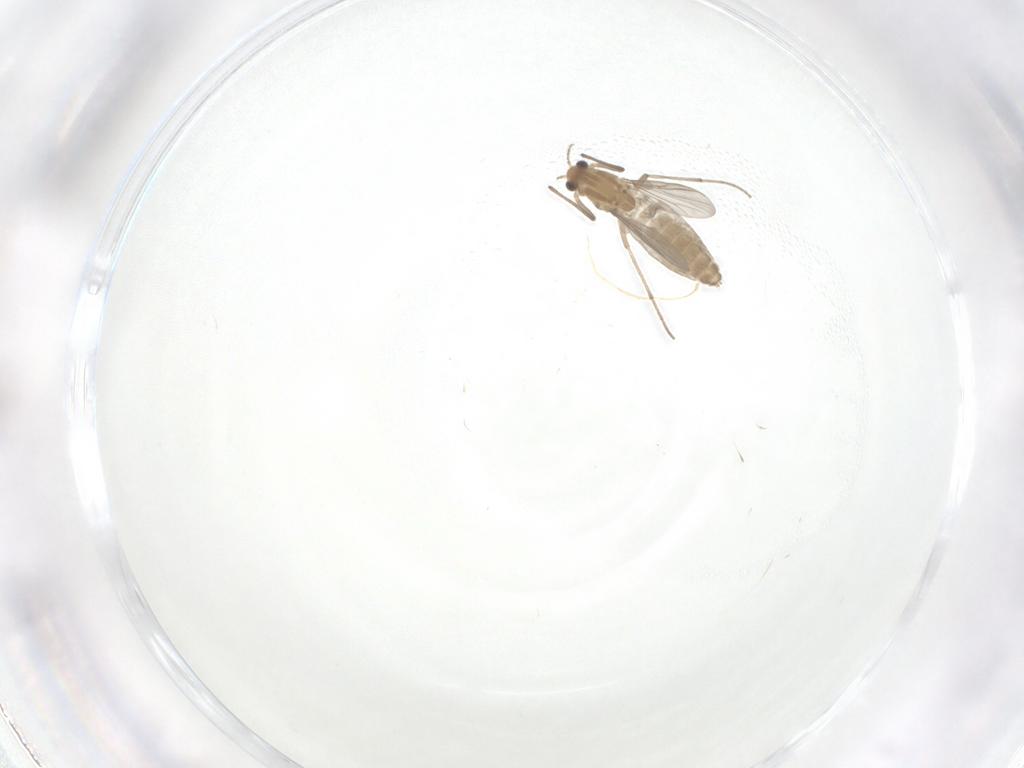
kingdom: Animalia
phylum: Arthropoda
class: Insecta
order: Diptera
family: Chironomidae
